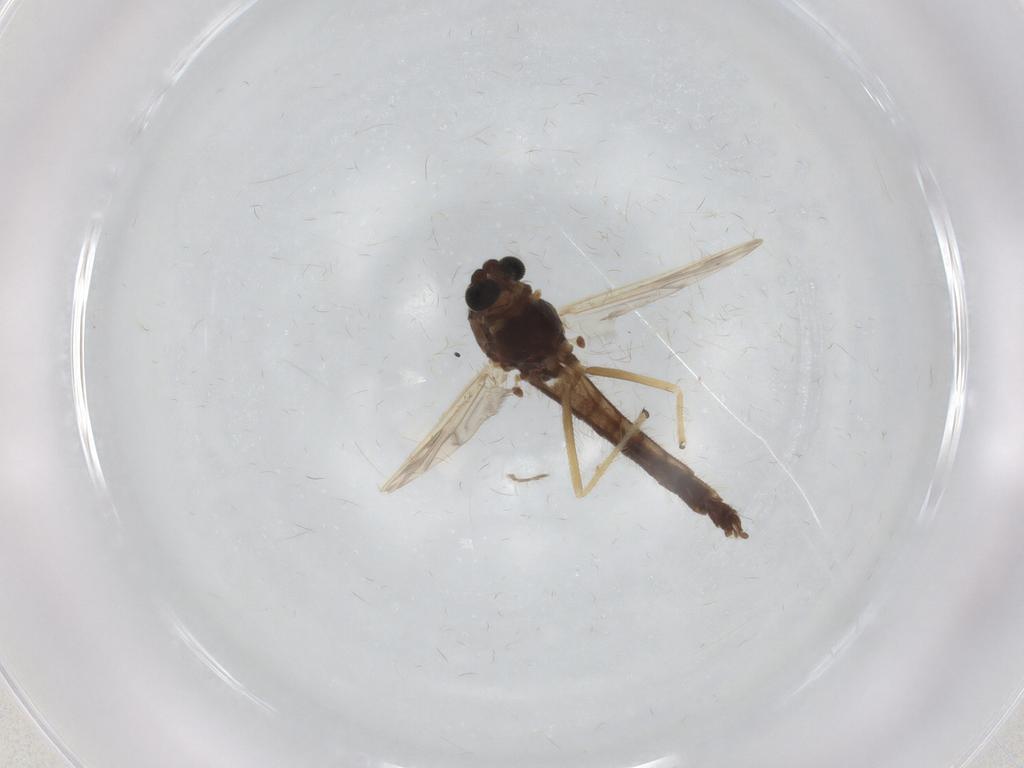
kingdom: Animalia
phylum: Arthropoda
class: Insecta
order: Diptera
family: Chironomidae
